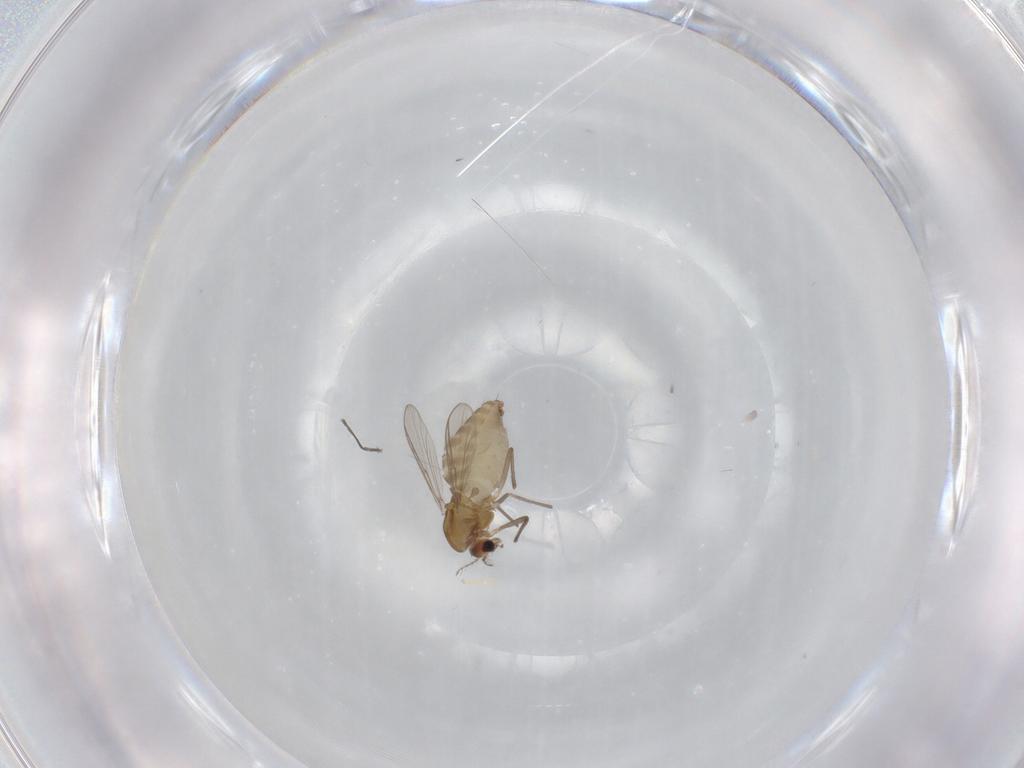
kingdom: Animalia
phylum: Arthropoda
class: Insecta
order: Diptera
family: Chironomidae
